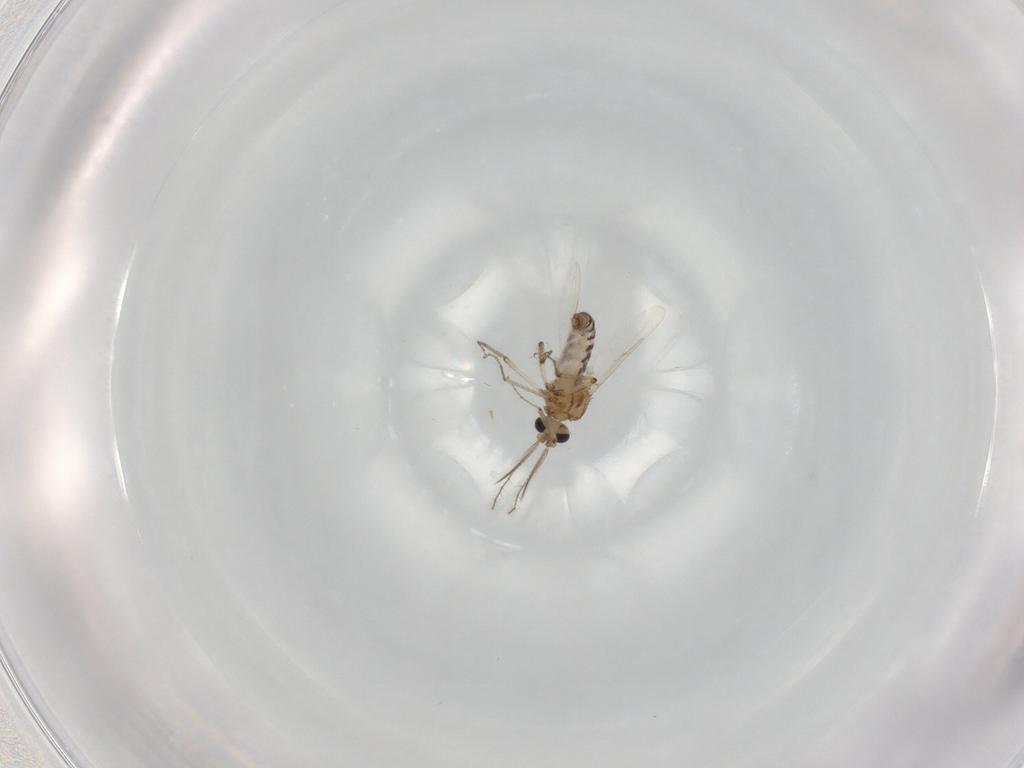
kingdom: Animalia
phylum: Arthropoda
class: Insecta
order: Diptera
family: Ceratopogonidae
